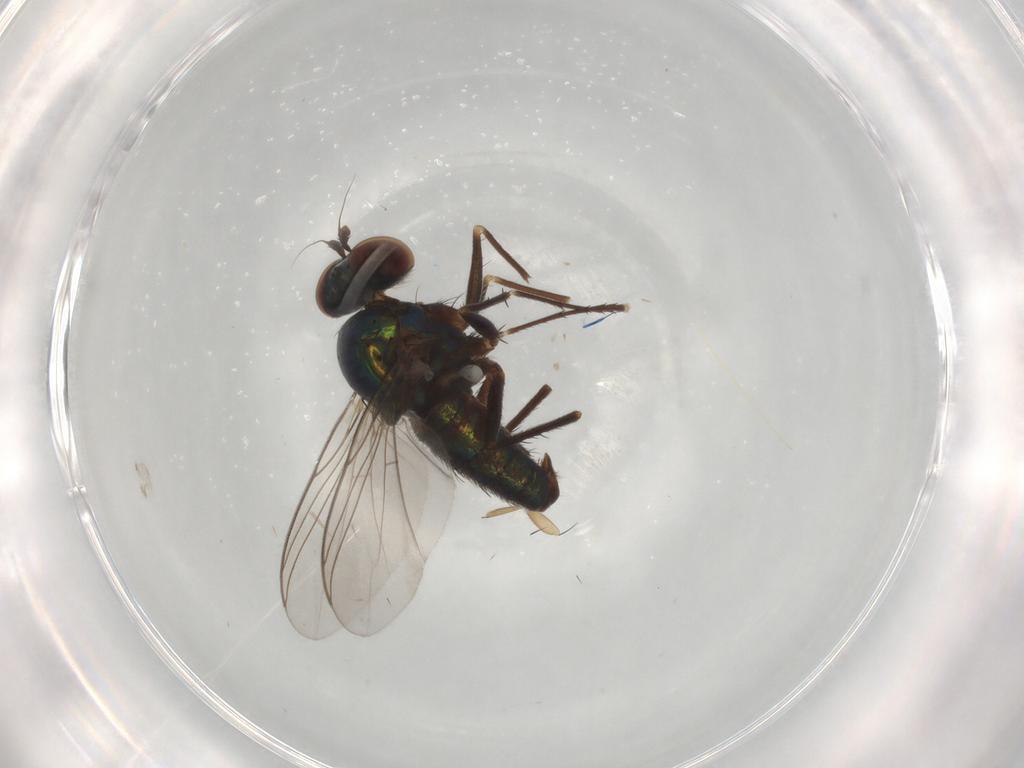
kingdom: Animalia
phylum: Arthropoda
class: Insecta
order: Diptera
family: Dolichopodidae
